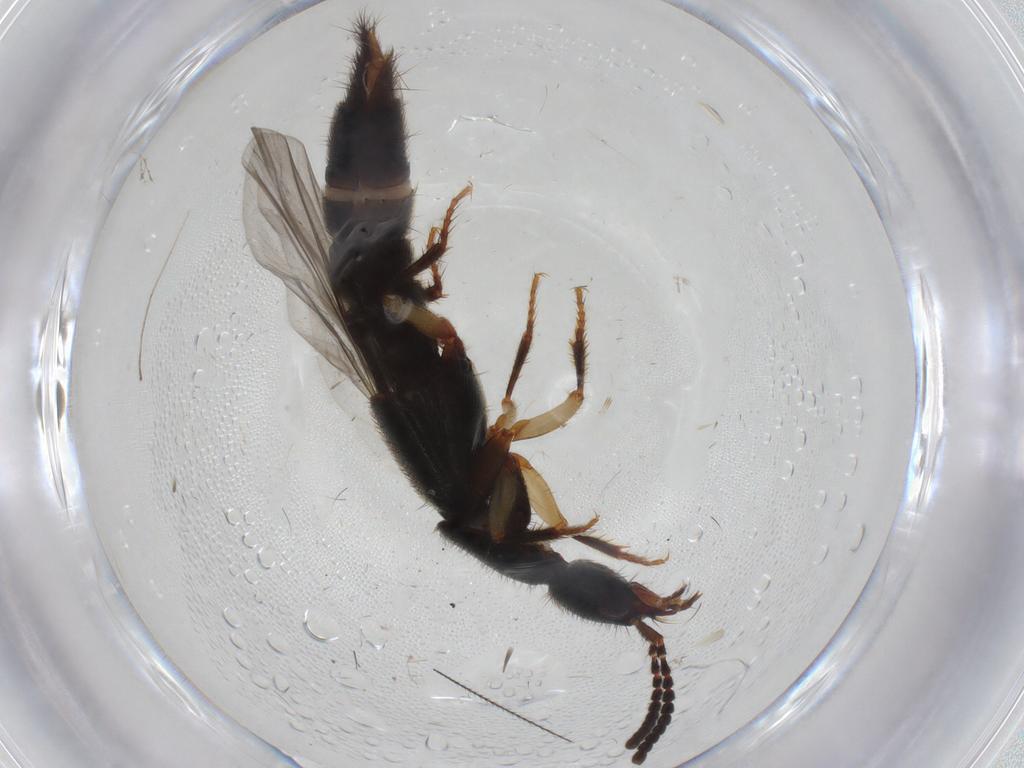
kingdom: Animalia
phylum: Arthropoda
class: Insecta
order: Coleoptera
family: Staphylinidae
